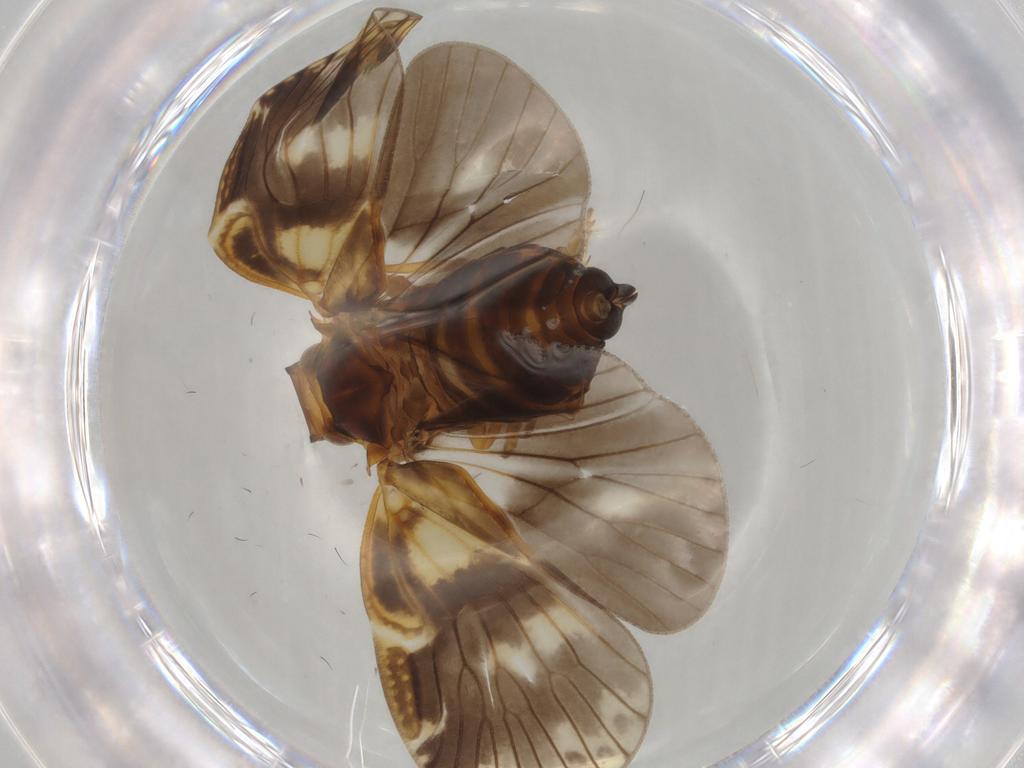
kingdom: Animalia
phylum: Arthropoda
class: Insecta
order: Hemiptera
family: Cixiidae
